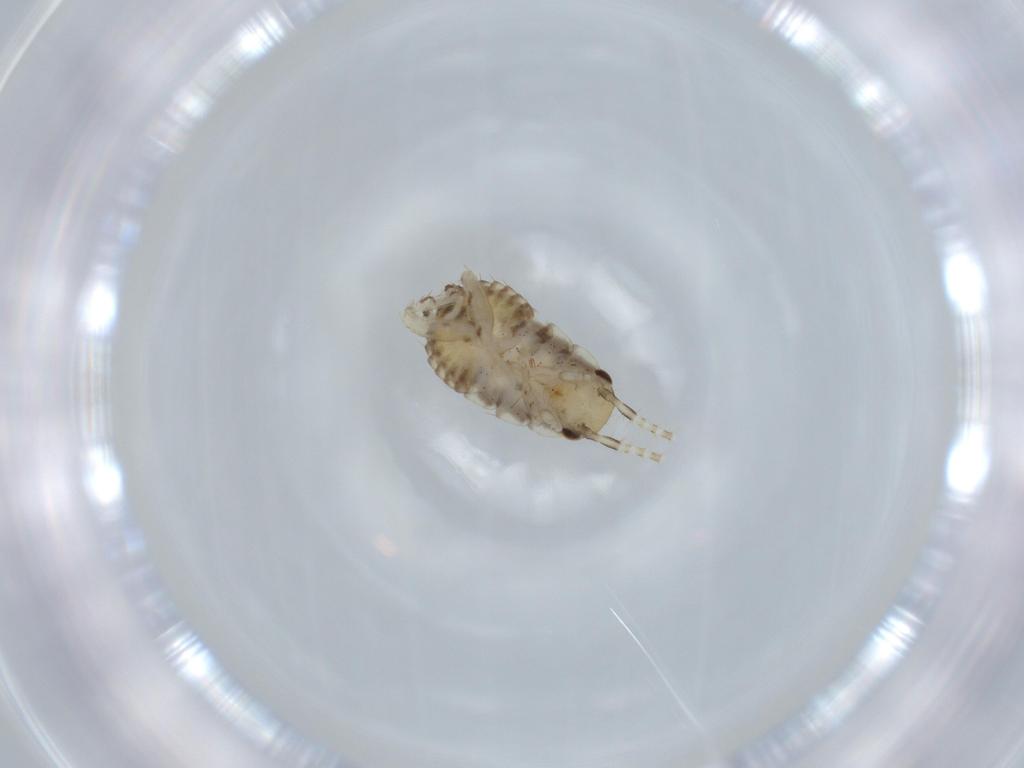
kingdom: Animalia
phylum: Arthropoda
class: Insecta
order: Blattodea
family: Ectobiidae
